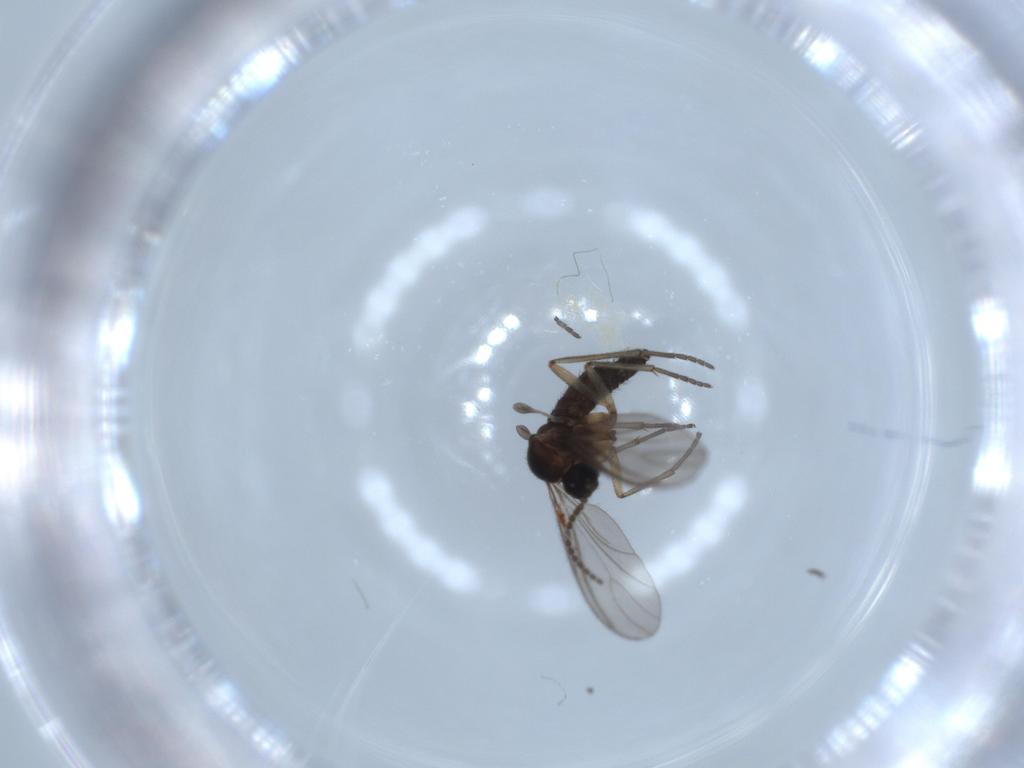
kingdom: Animalia
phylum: Arthropoda
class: Insecta
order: Diptera
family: Sciaridae
